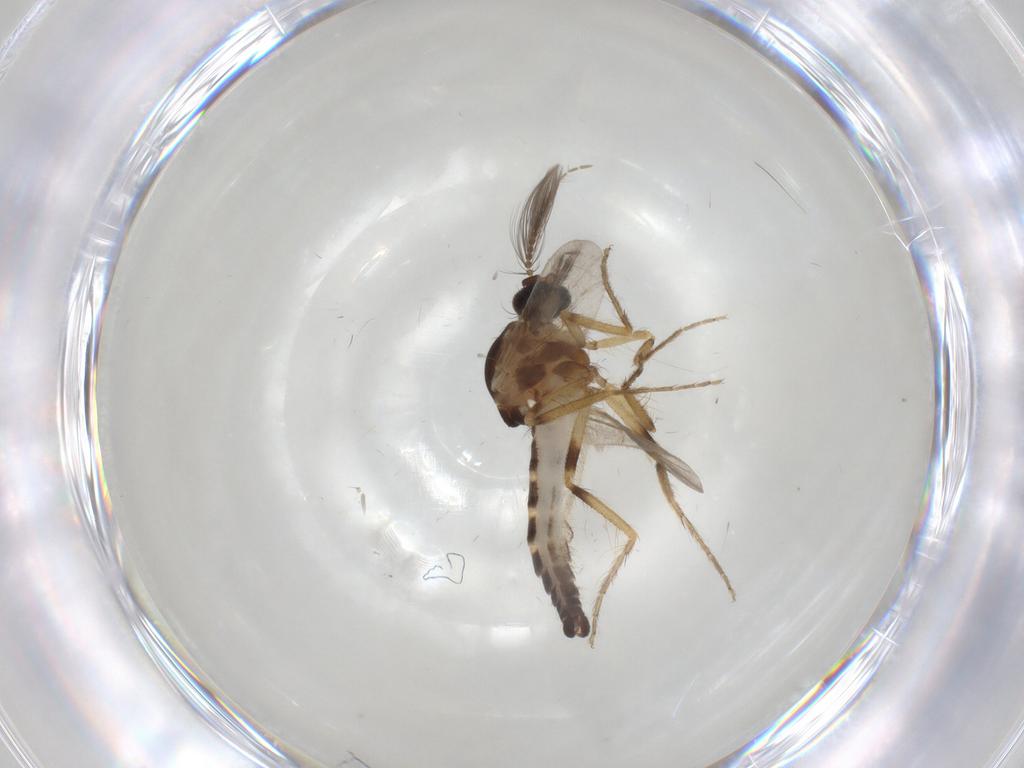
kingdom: Animalia
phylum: Arthropoda
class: Insecta
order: Diptera
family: Ceratopogonidae
